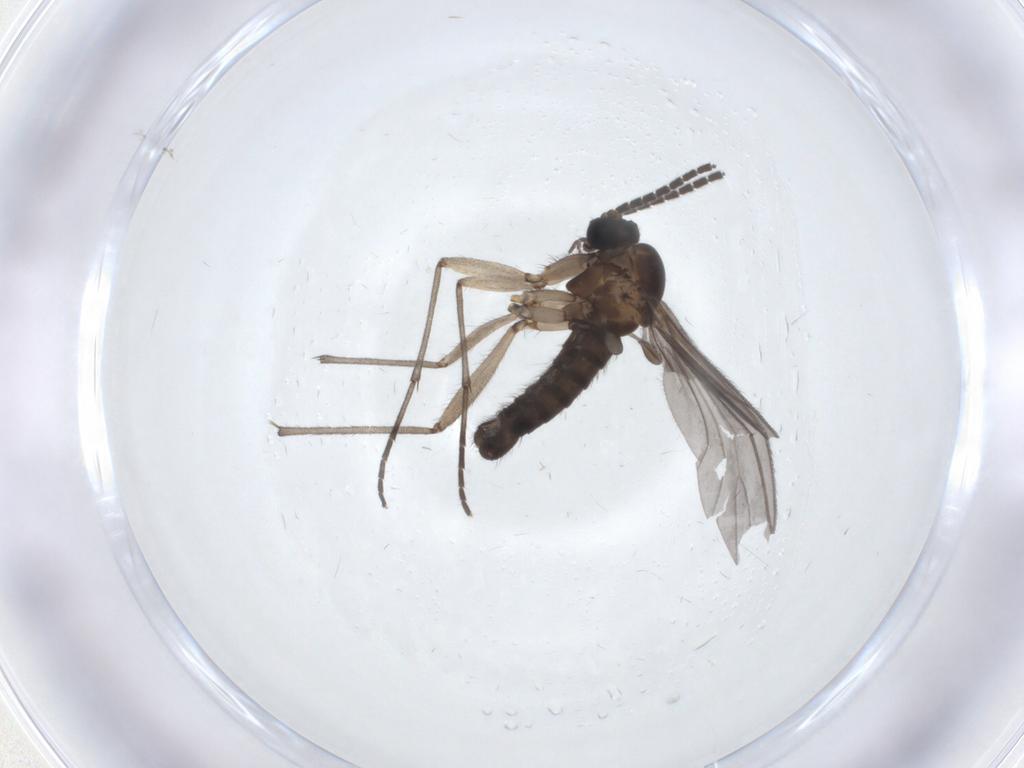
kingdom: Animalia
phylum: Arthropoda
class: Insecta
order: Diptera
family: Sciaridae
